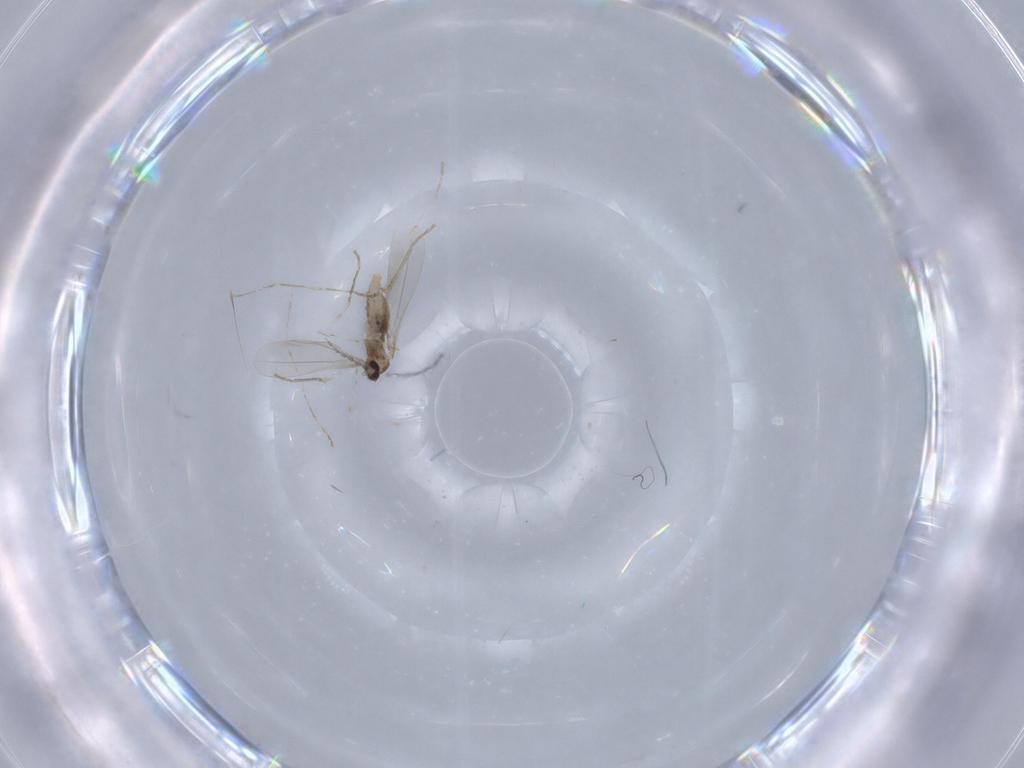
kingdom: Animalia
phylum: Arthropoda
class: Insecta
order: Diptera
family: Cecidomyiidae
